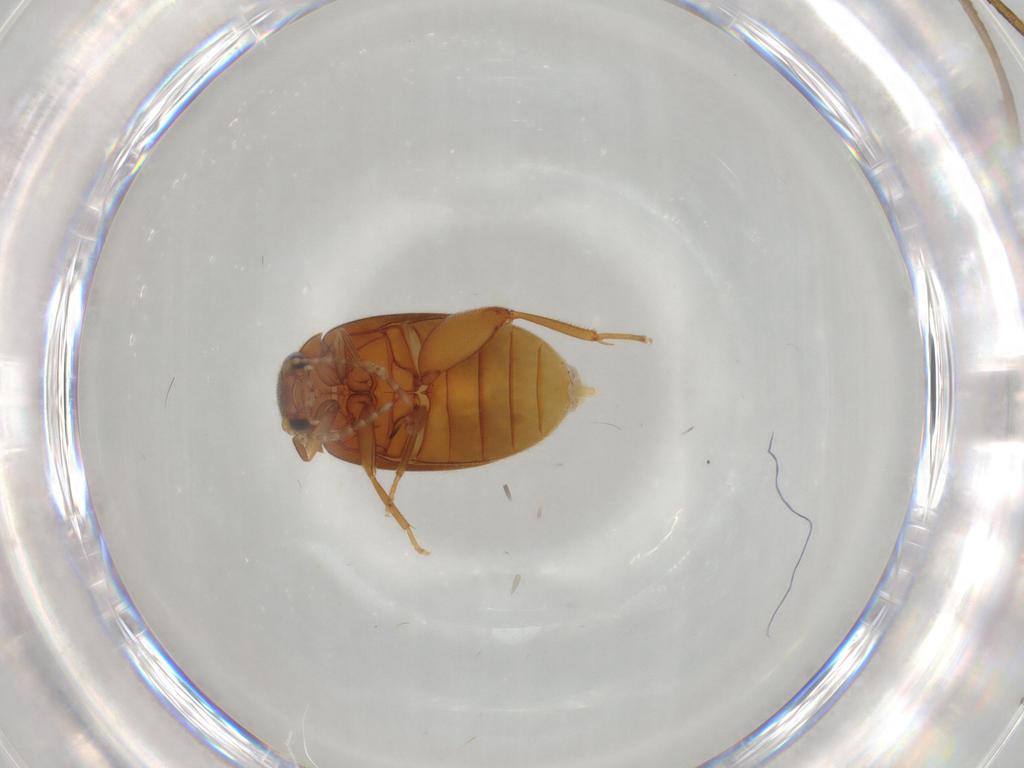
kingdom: Animalia
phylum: Arthropoda
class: Insecta
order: Coleoptera
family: Scirtidae
